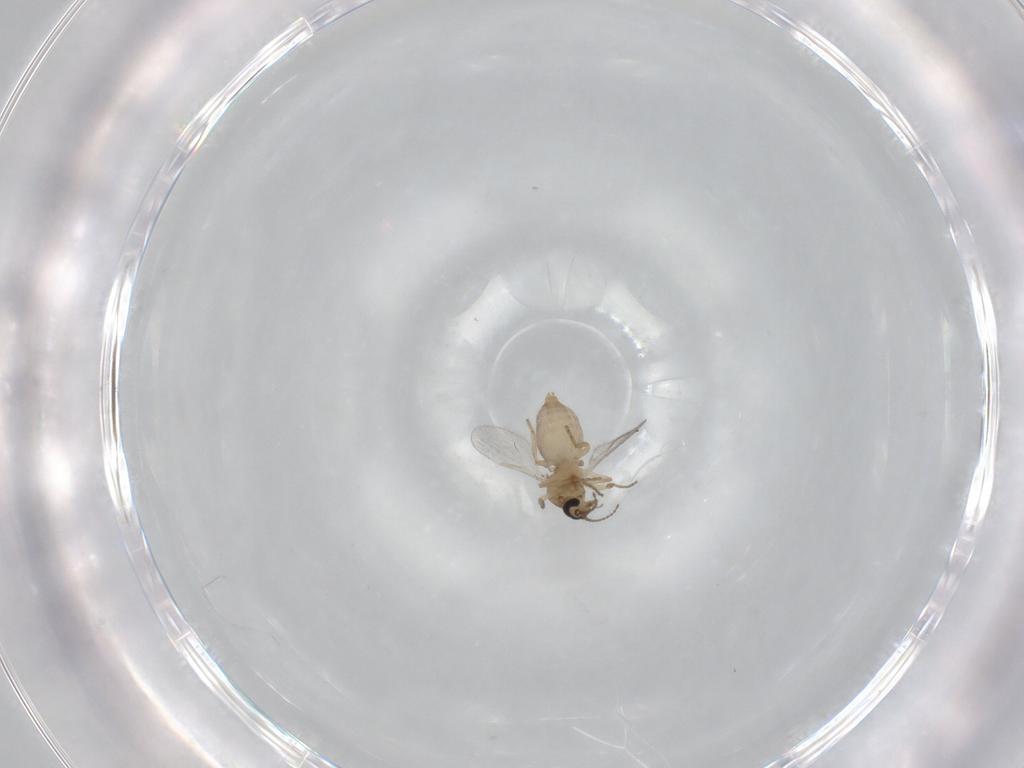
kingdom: Animalia
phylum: Arthropoda
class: Insecta
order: Diptera
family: Ceratopogonidae
